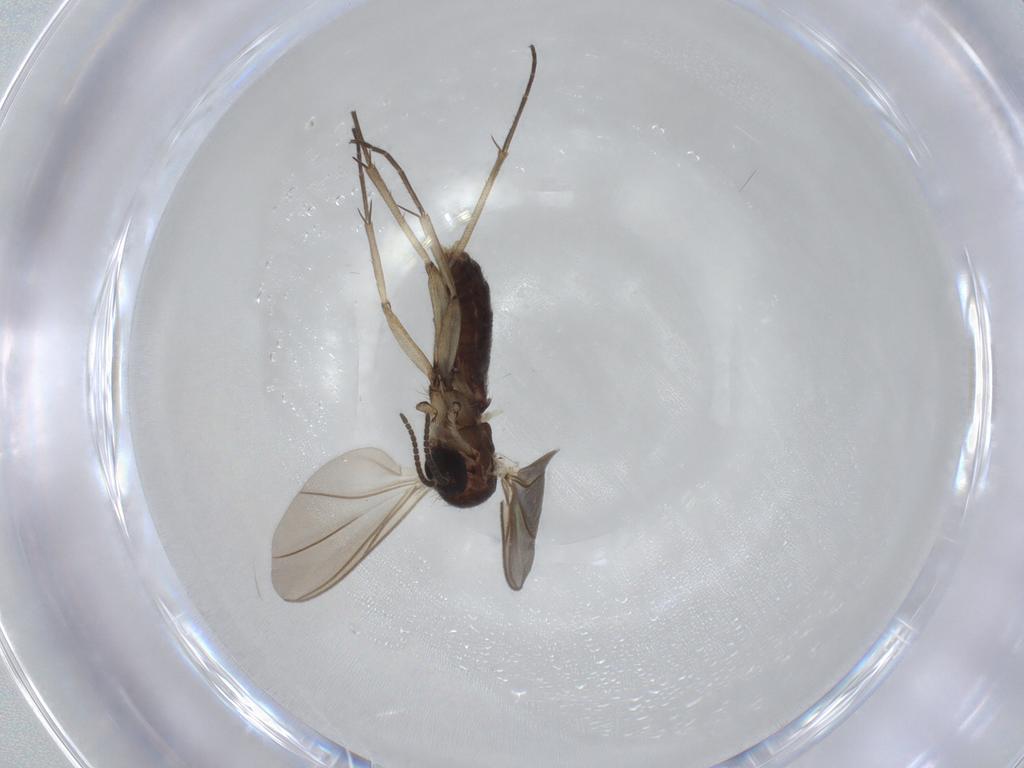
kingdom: Animalia
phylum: Arthropoda
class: Insecta
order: Diptera
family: Mycetophilidae
